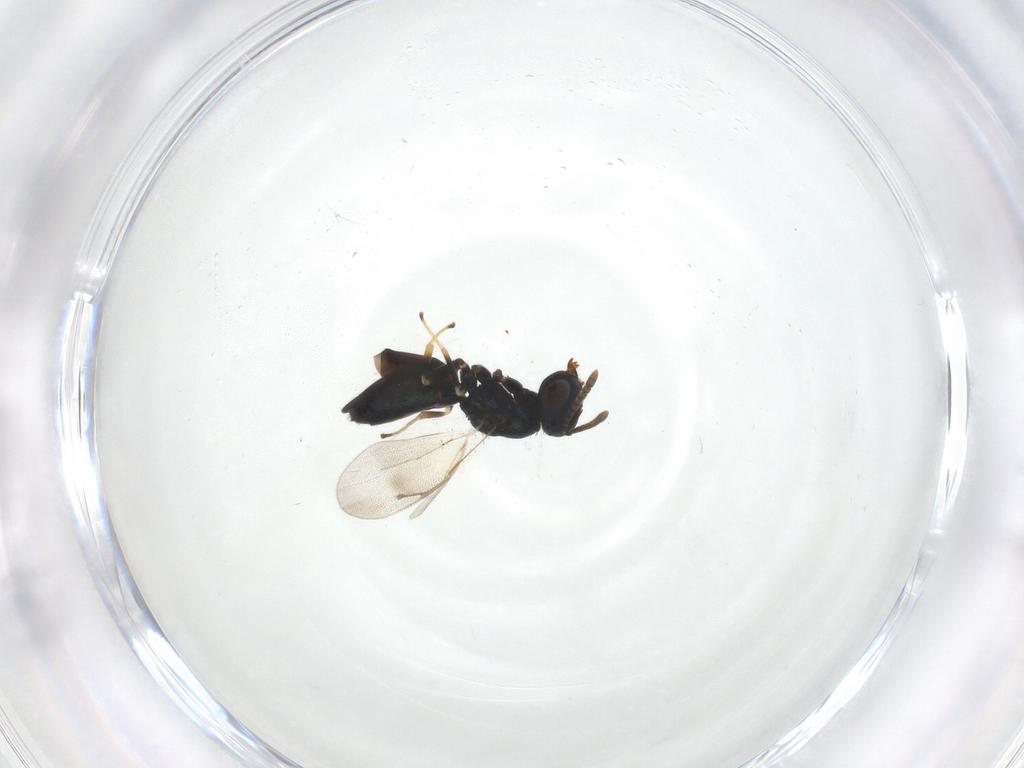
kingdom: Animalia
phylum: Arthropoda
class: Insecta
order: Hymenoptera
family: Pteromalidae
